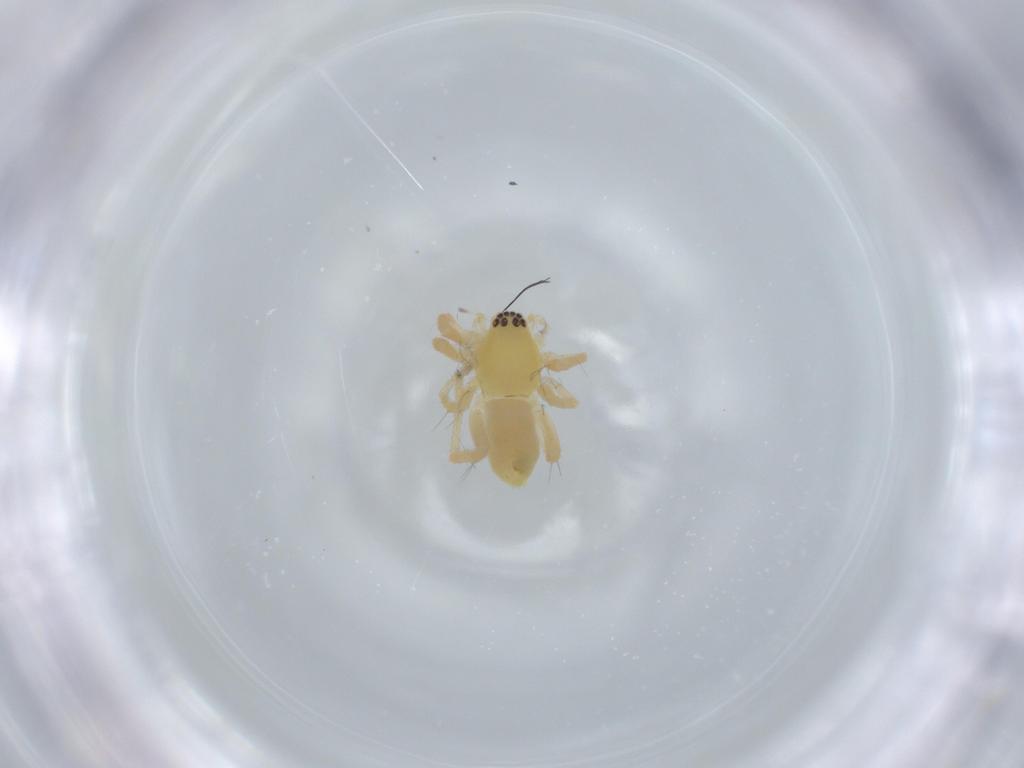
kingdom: Animalia
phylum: Arthropoda
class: Arachnida
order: Araneae
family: Anyphaenidae
